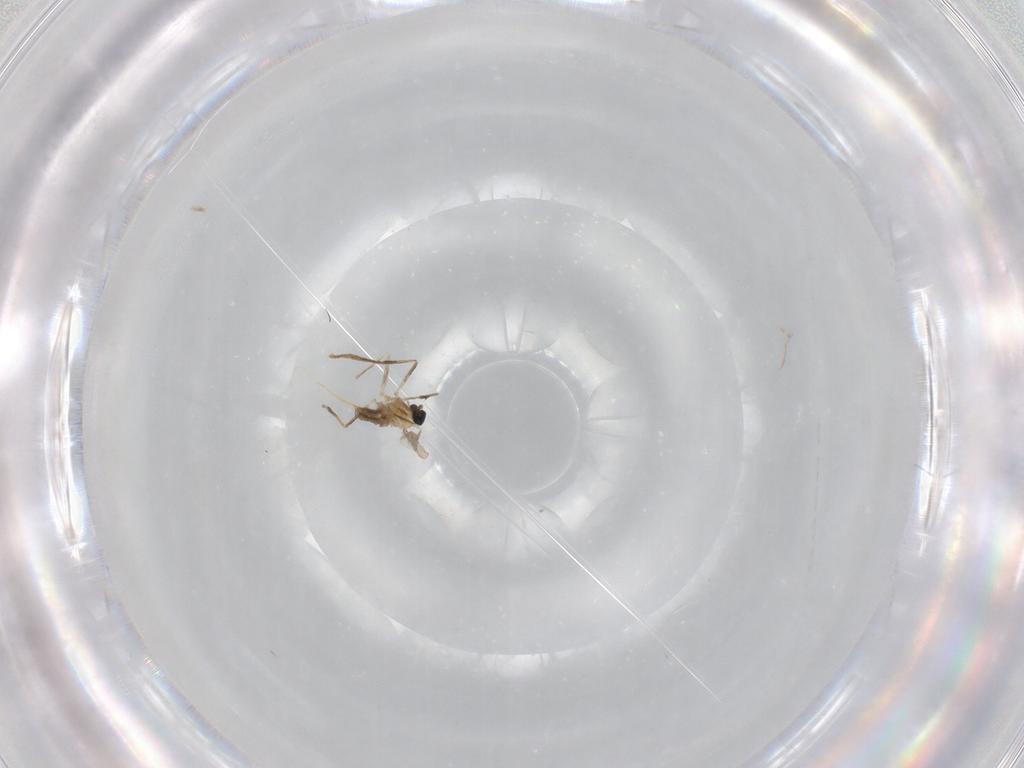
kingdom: Animalia
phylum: Arthropoda
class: Insecta
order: Diptera
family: Cecidomyiidae
